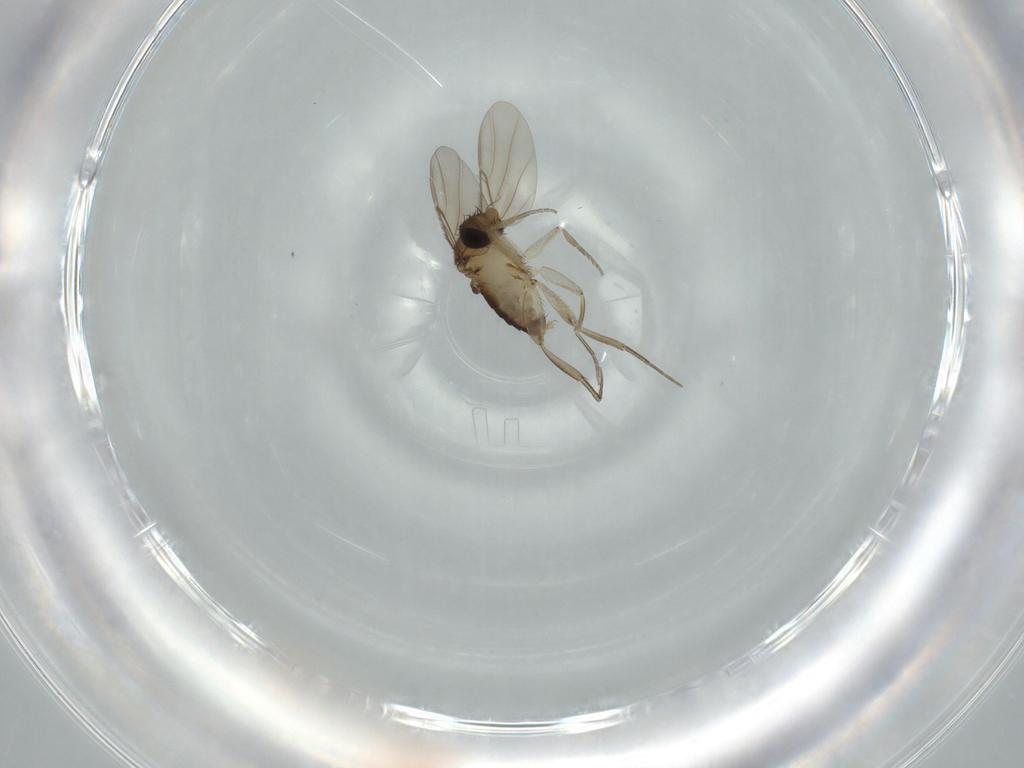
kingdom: Animalia
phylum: Arthropoda
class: Insecta
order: Diptera
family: Phoridae
